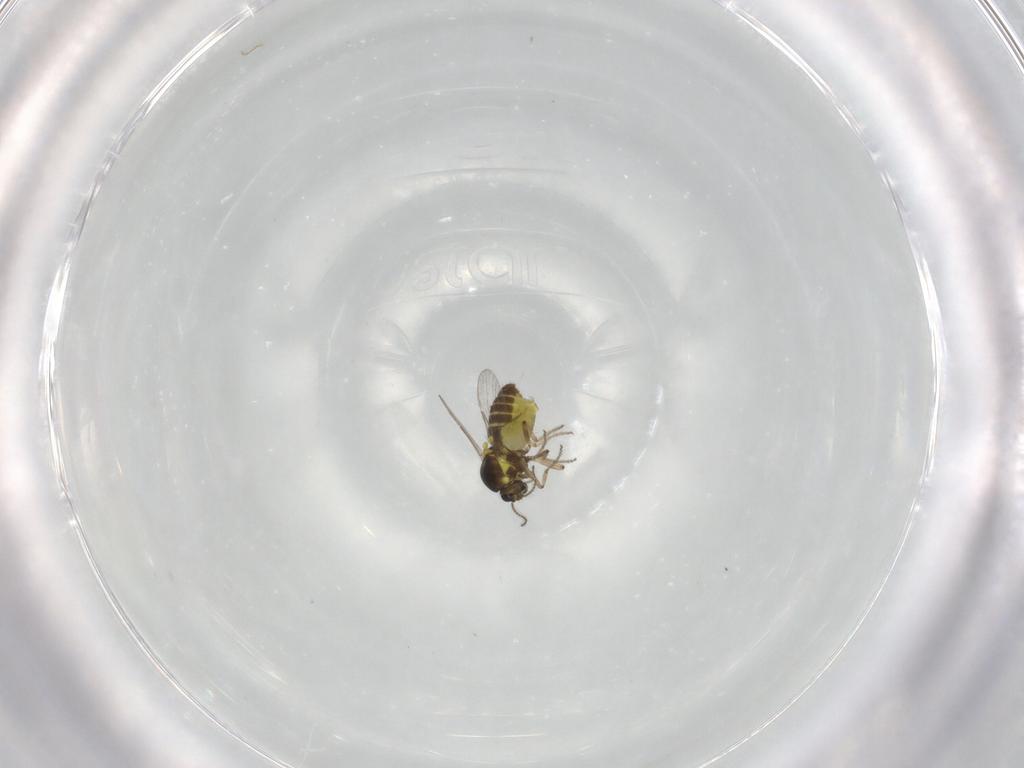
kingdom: Animalia
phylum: Arthropoda
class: Insecta
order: Diptera
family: Ceratopogonidae
